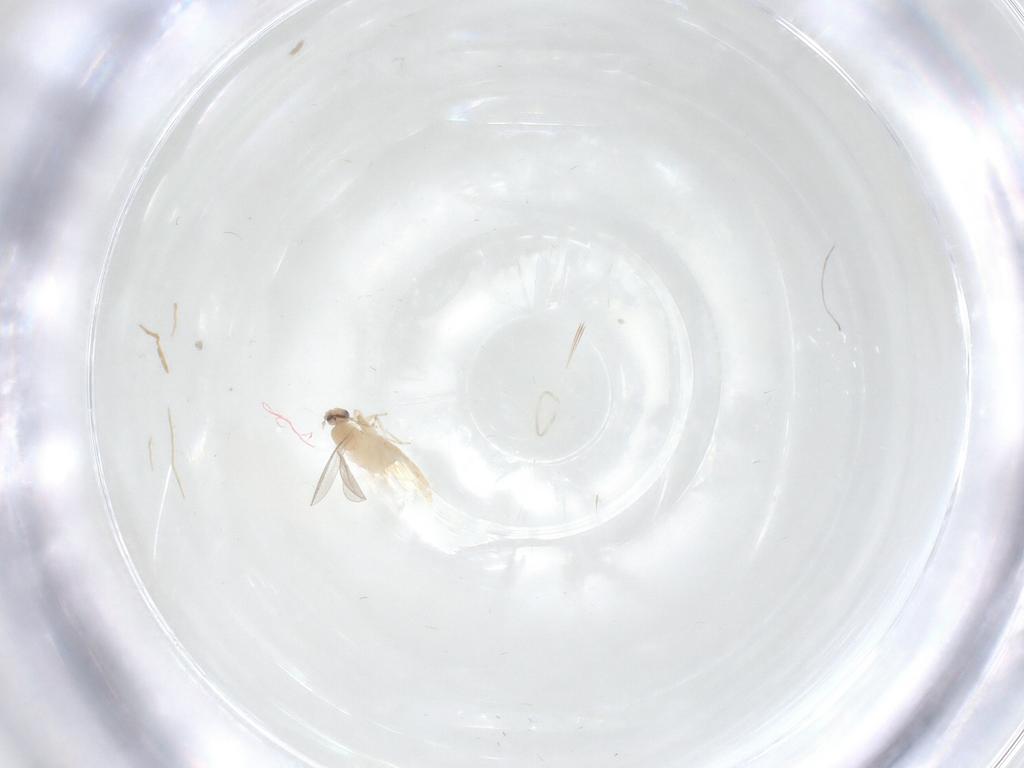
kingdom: Animalia
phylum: Arthropoda
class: Insecta
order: Diptera
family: Cecidomyiidae
